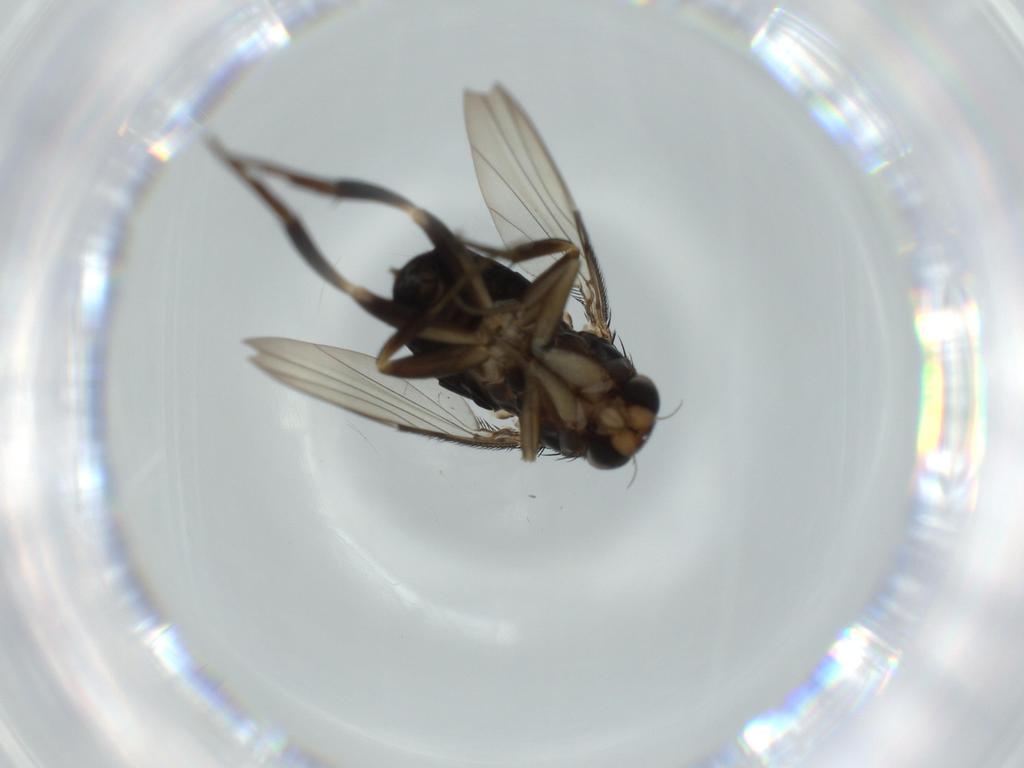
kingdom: Animalia
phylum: Arthropoda
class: Insecta
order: Diptera
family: Phoridae
